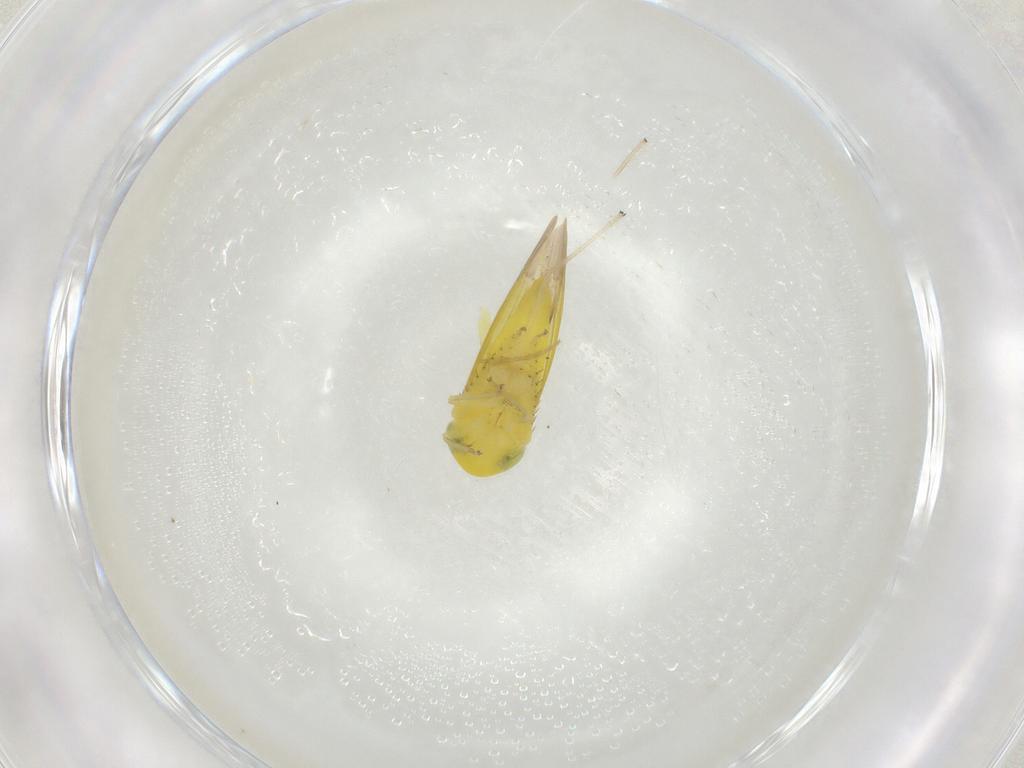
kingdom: Animalia
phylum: Arthropoda
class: Insecta
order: Hemiptera
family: Cicadellidae
